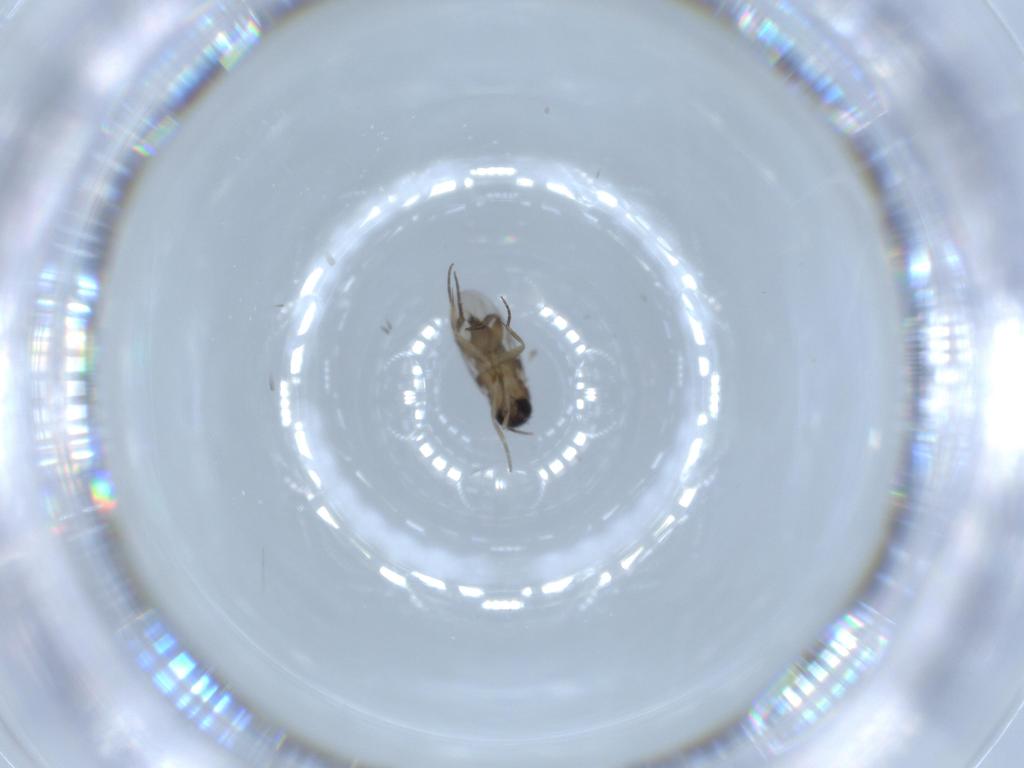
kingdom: Animalia
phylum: Arthropoda
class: Insecta
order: Diptera
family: Phoridae
